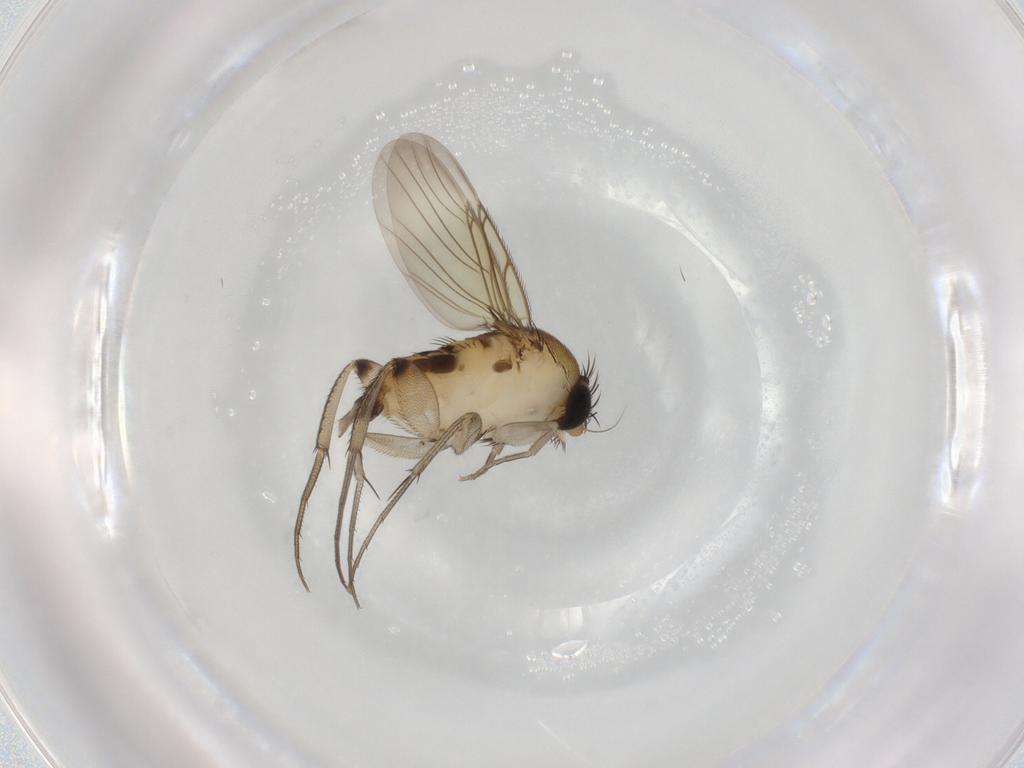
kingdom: Animalia
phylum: Arthropoda
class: Insecta
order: Diptera
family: Phoridae
